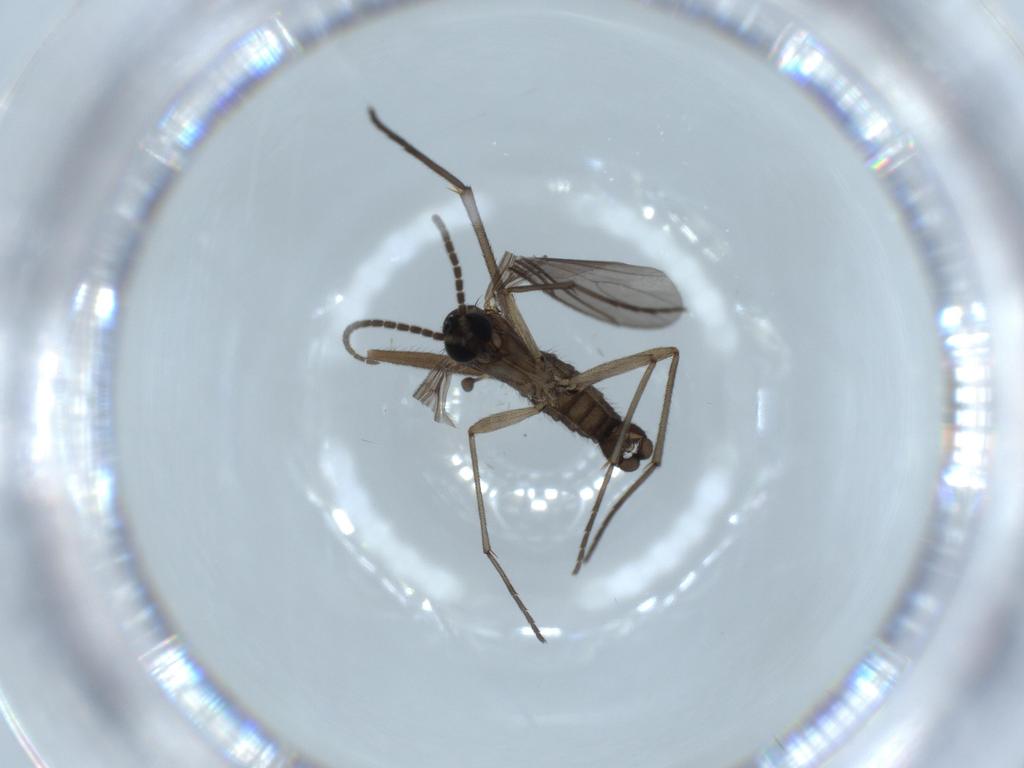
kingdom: Animalia
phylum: Arthropoda
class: Insecta
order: Diptera
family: Sciaridae
